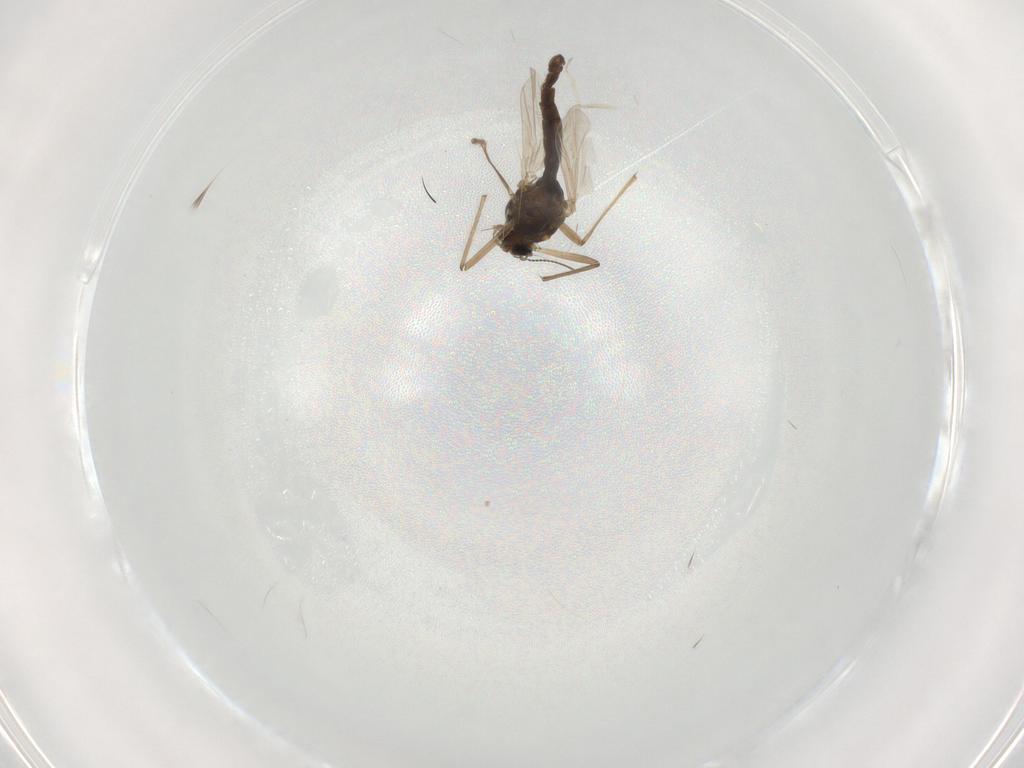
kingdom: Animalia
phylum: Arthropoda
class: Insecta
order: Diptera
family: Chironomidae
